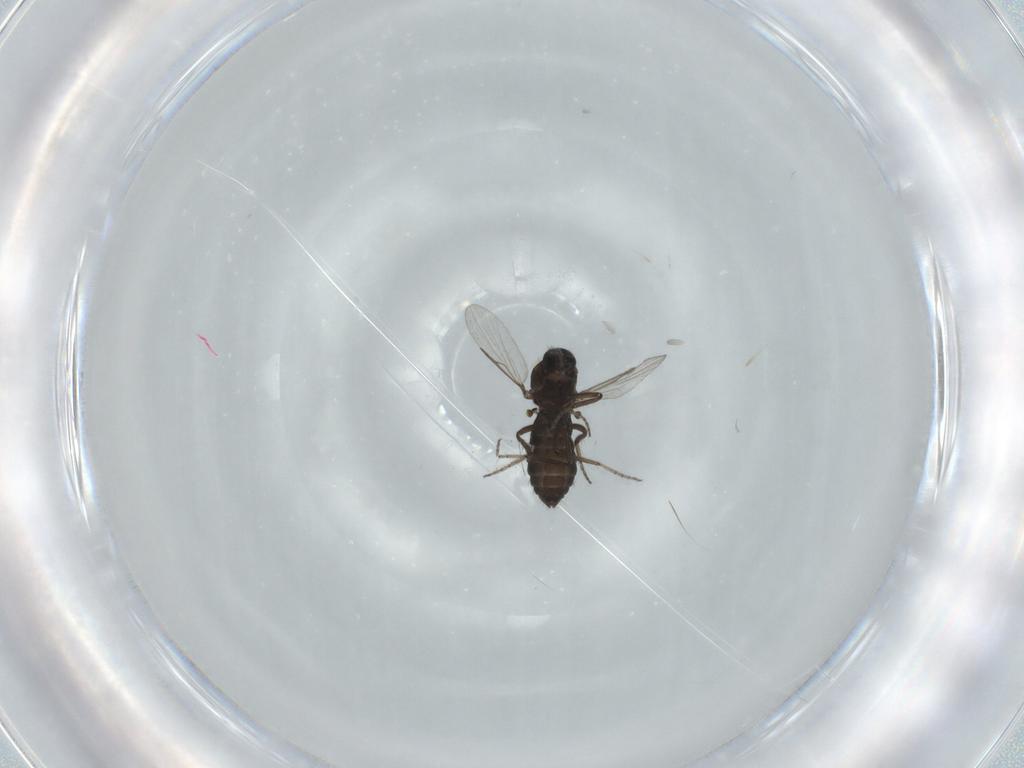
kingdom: Animalia
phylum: Arthropoda
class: Insecta
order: Diptera
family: Ceratopogonidae
